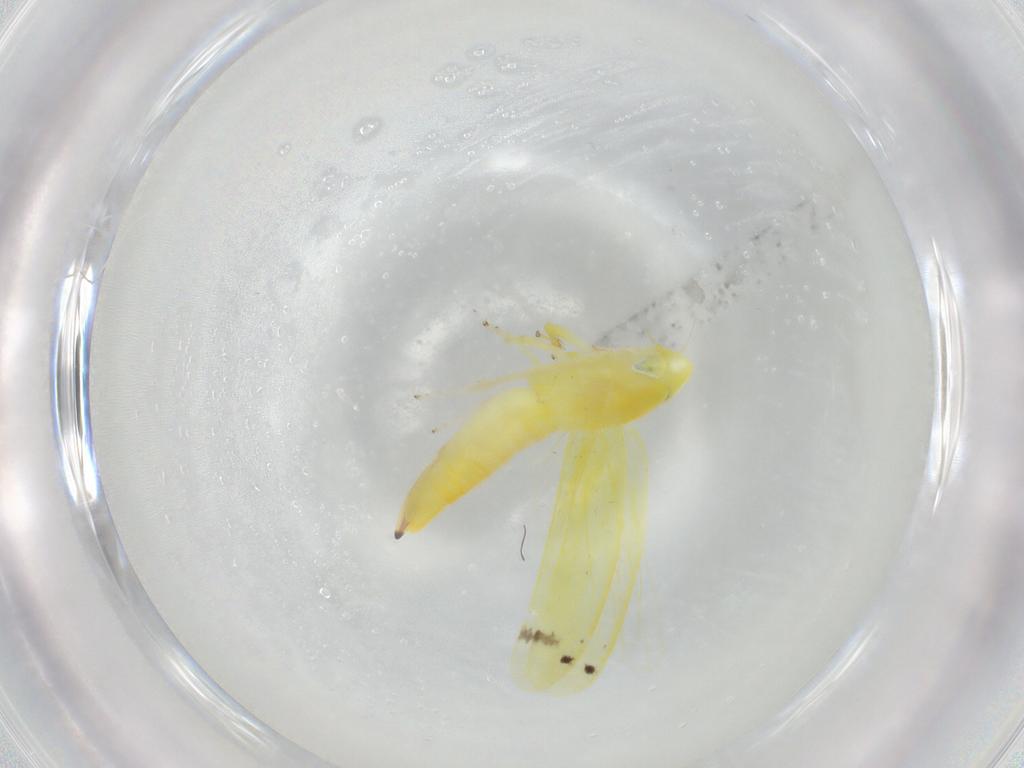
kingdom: Animalia
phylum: Arthropoda
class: Insecta
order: Hemiptera
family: Cicadellidae
